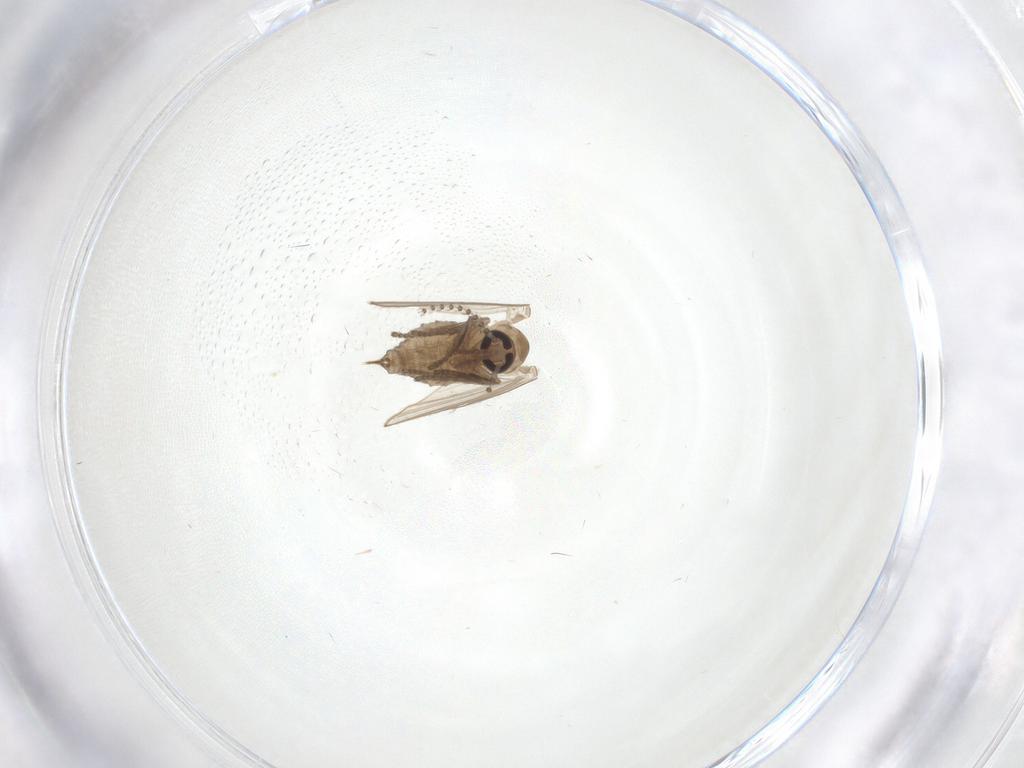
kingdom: Animalia
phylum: Arthropoda
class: Insecta
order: Diptera
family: Psychodidae
